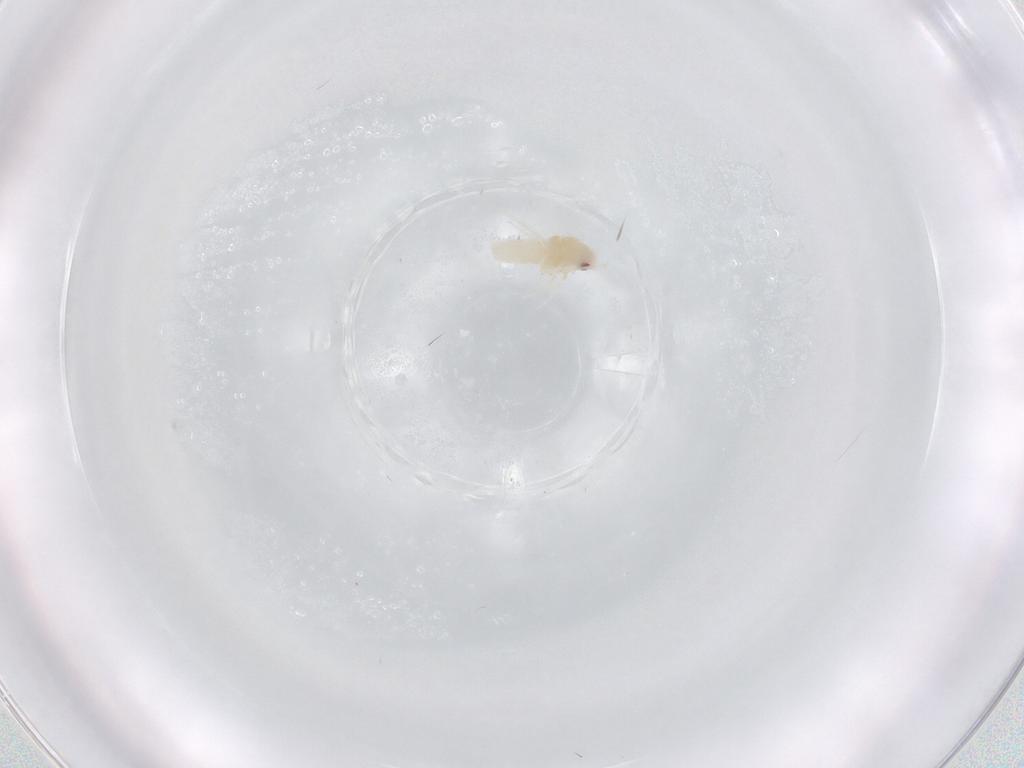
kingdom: Animalia
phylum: Arthropoda
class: Insecta
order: Hemiptera
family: Aleyrodidae
